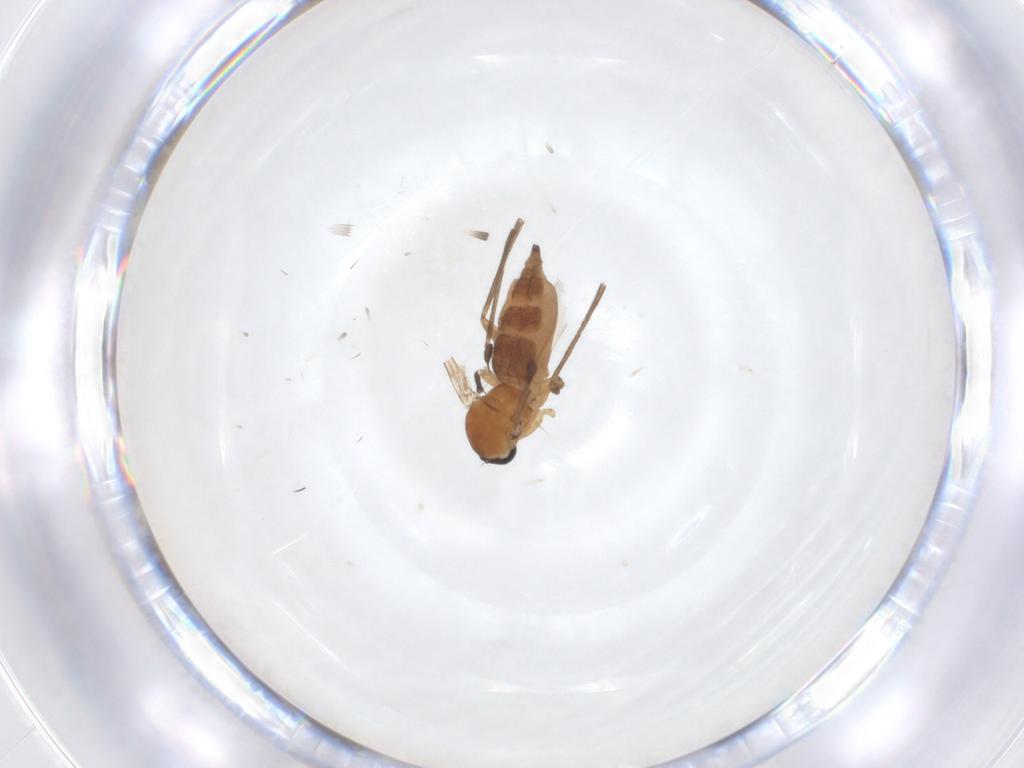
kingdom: Animalia
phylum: Arthropoda
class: Insecta
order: Diptera
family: Sciaridae
